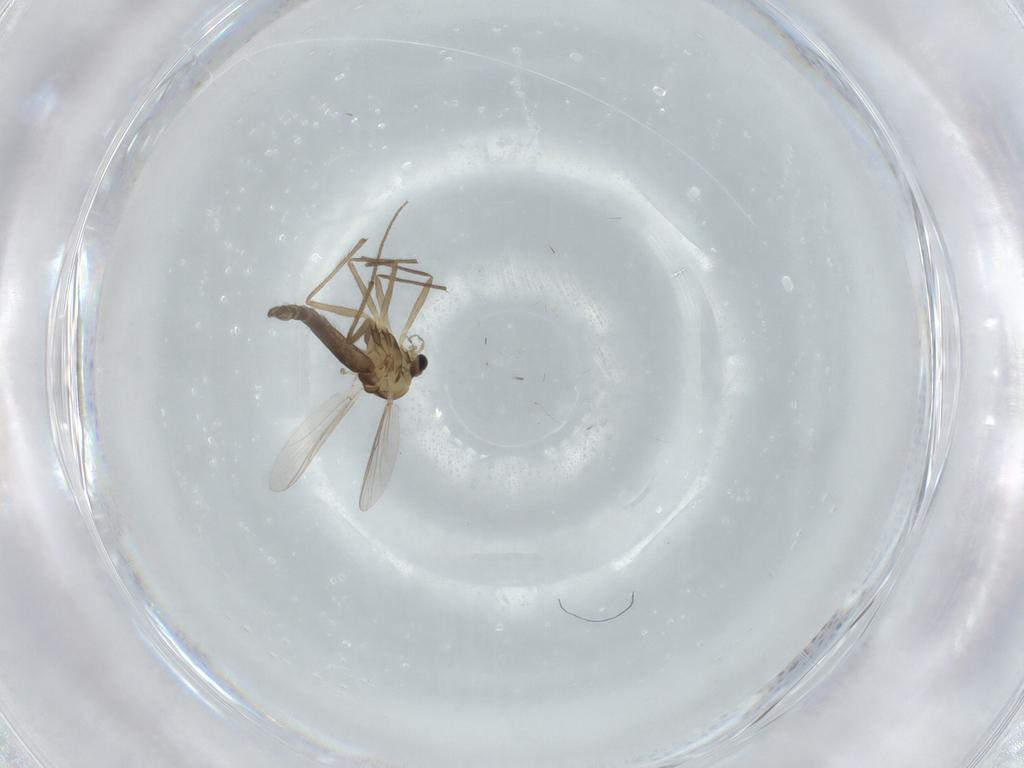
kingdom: Animalia
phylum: Arthropoda
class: Insecta
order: Diptera
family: Chironomidae
